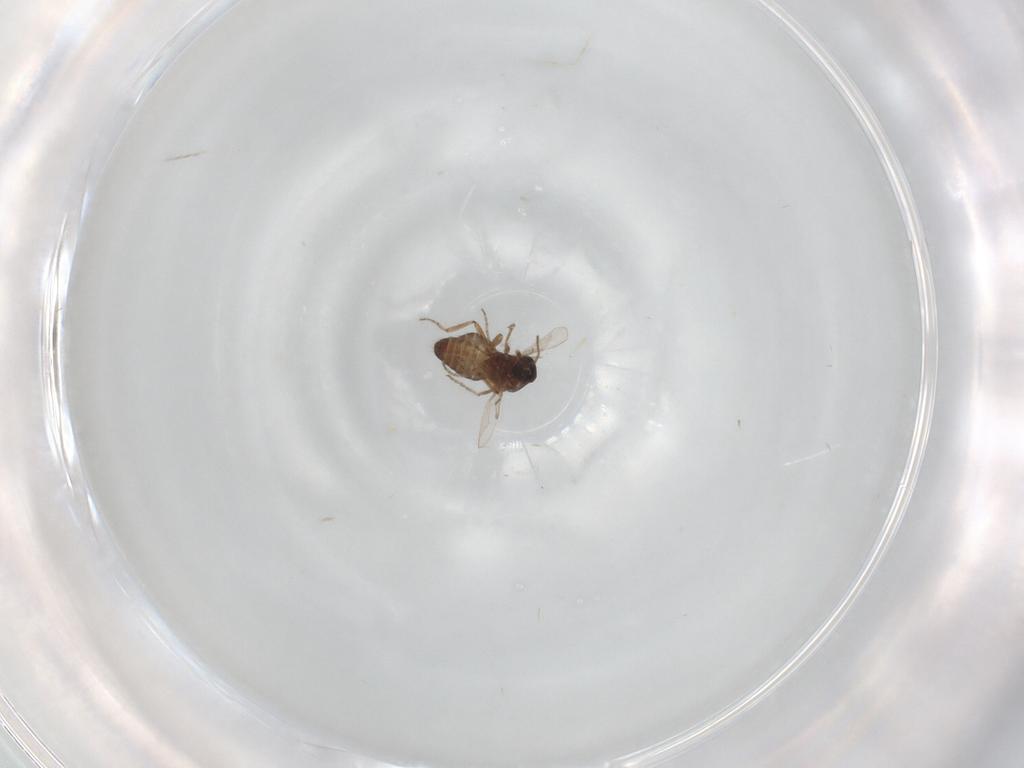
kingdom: Animalia
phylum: Arthropoda
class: Insecta
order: Diptera
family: Ceratopogonidae
